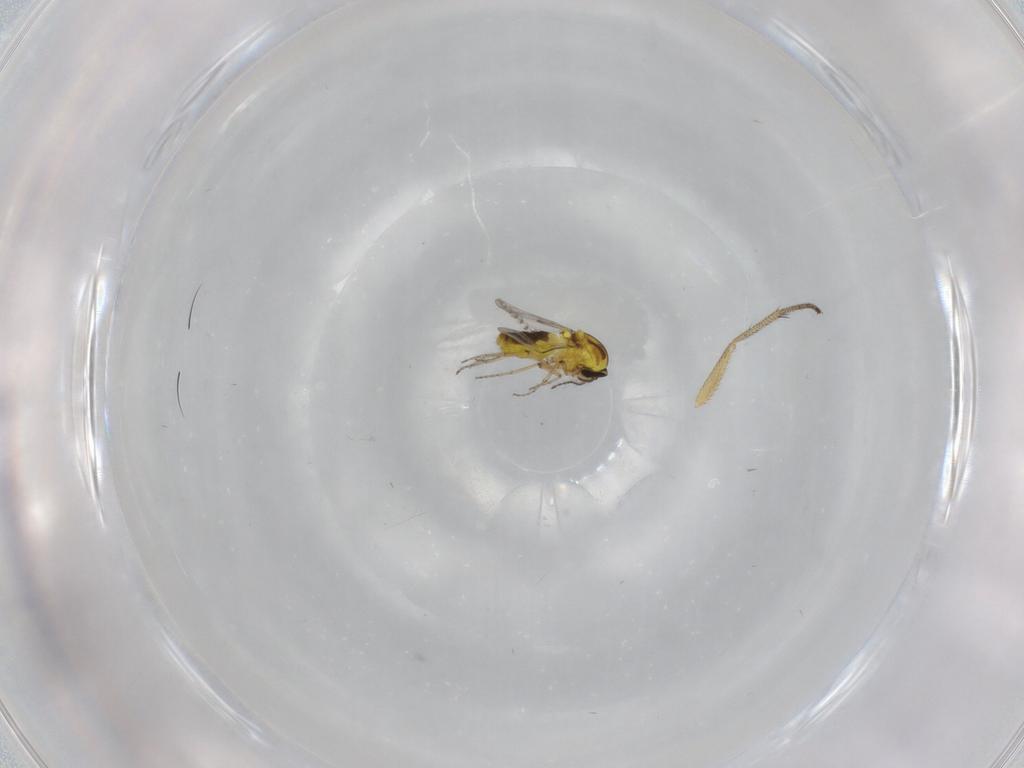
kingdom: Animalia
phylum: Arthropoda
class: Insecta
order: Diptera
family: Ceratopogonidae
